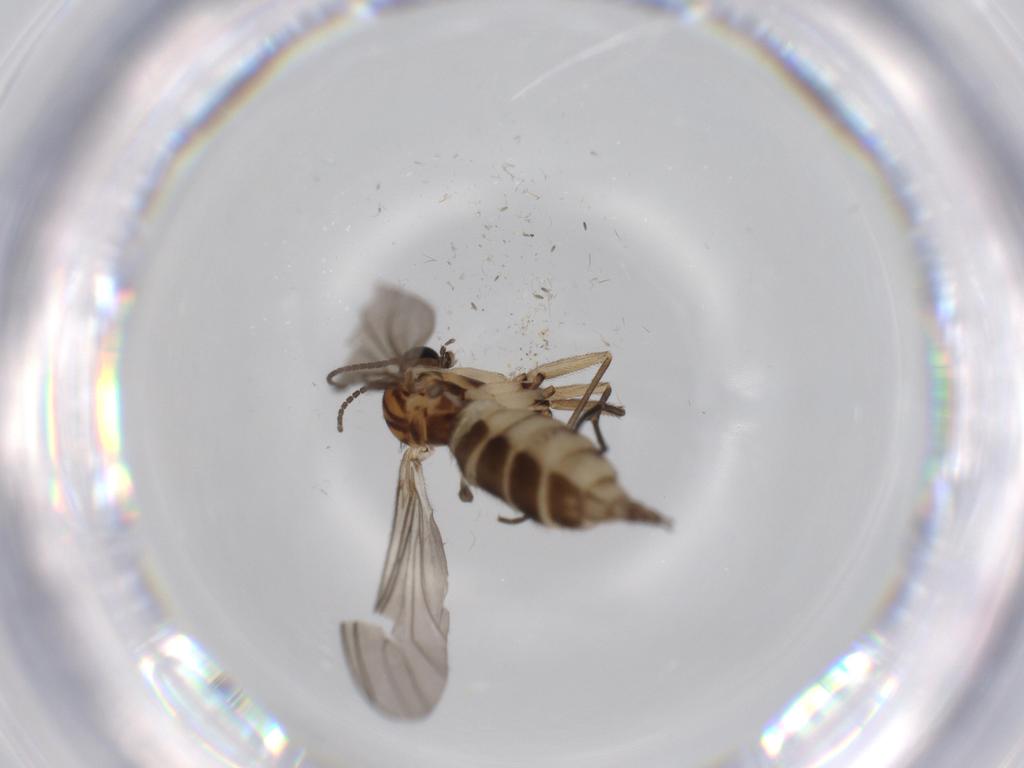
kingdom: Animalia
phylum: Arthropoda
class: Insecta
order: Diptera
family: Sciaridae
